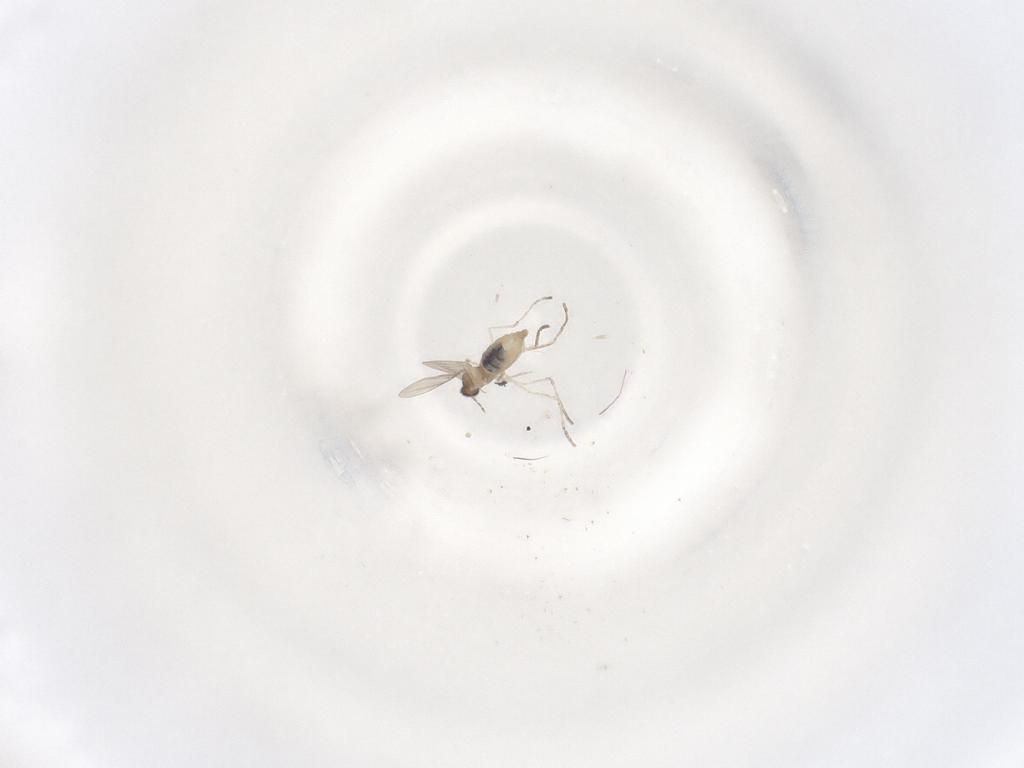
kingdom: Animalia
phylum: Arthropoda
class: Insecta
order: Diptera
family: Cecidomyiidae
